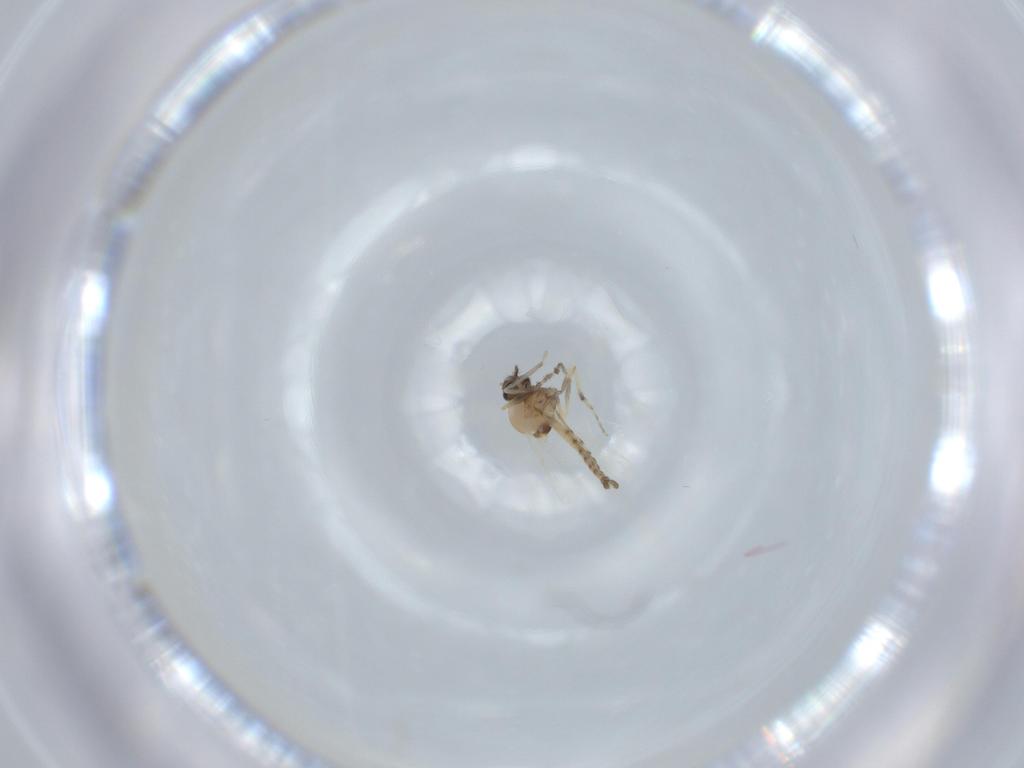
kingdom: Animalia
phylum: Arthropoda
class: Insecta
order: Diptera
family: Ceratopogonidae
